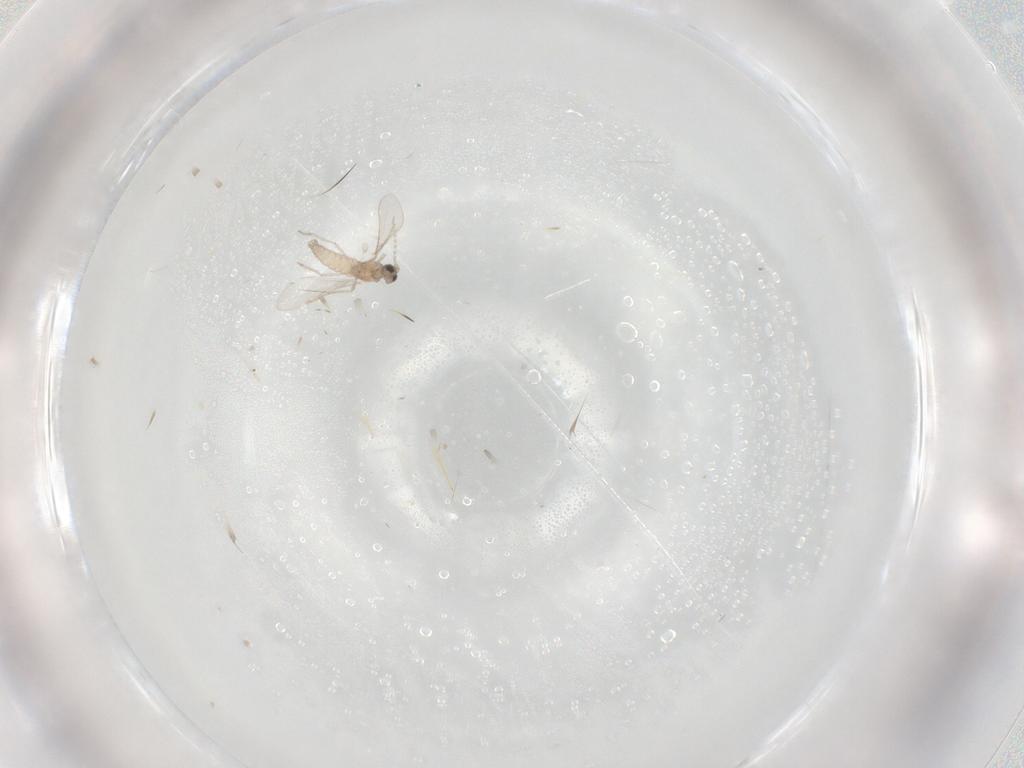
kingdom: Animalia
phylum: Arthropoda
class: Insecta
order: Diptera
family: Cecidomyiidae
